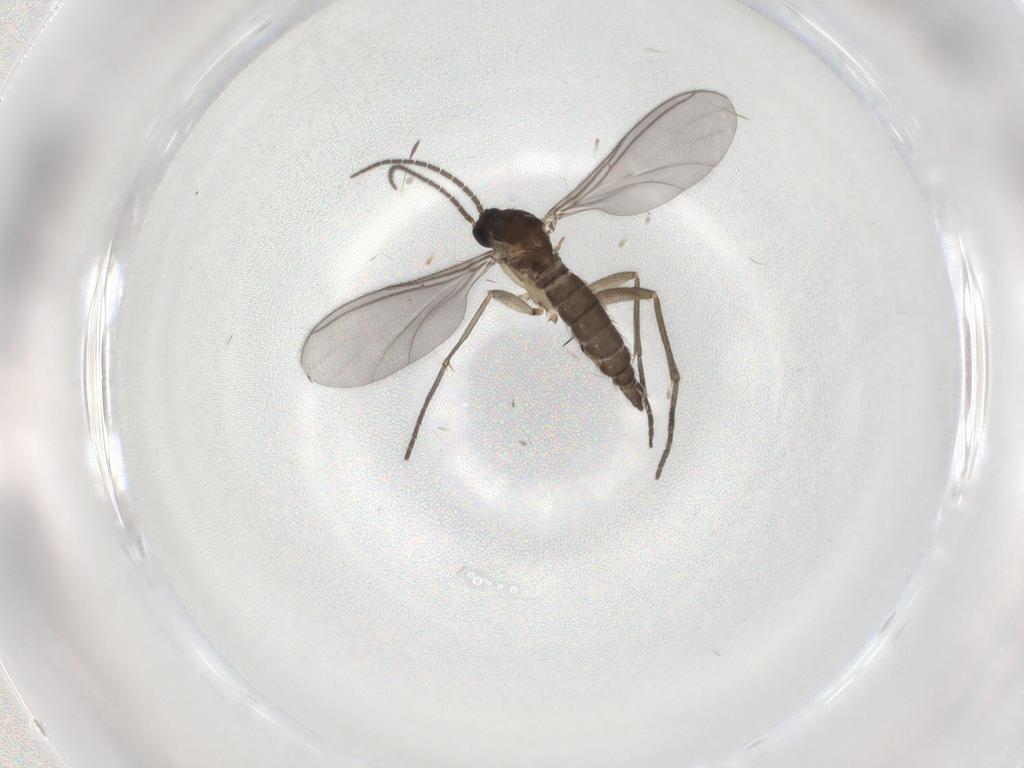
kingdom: Animalia
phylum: Arthropoda
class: Insecta
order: Diptera
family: Sciaridae
